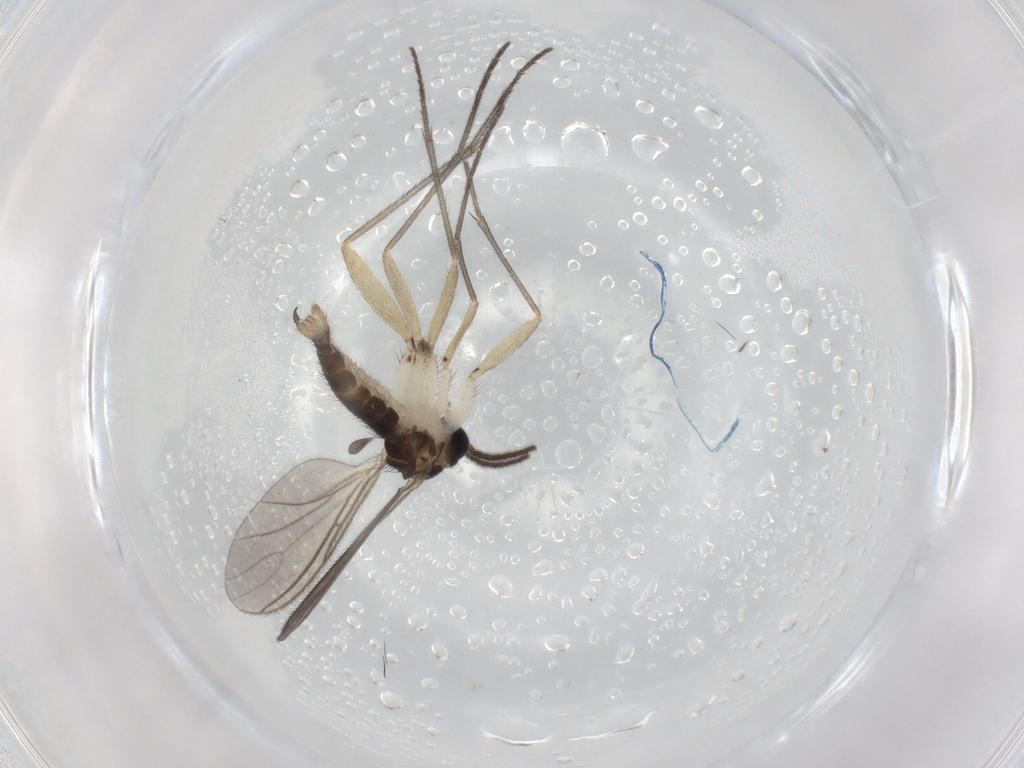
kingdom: Animalia
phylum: Arthropoda
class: Insecta
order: Diptera
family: Sciaridae
